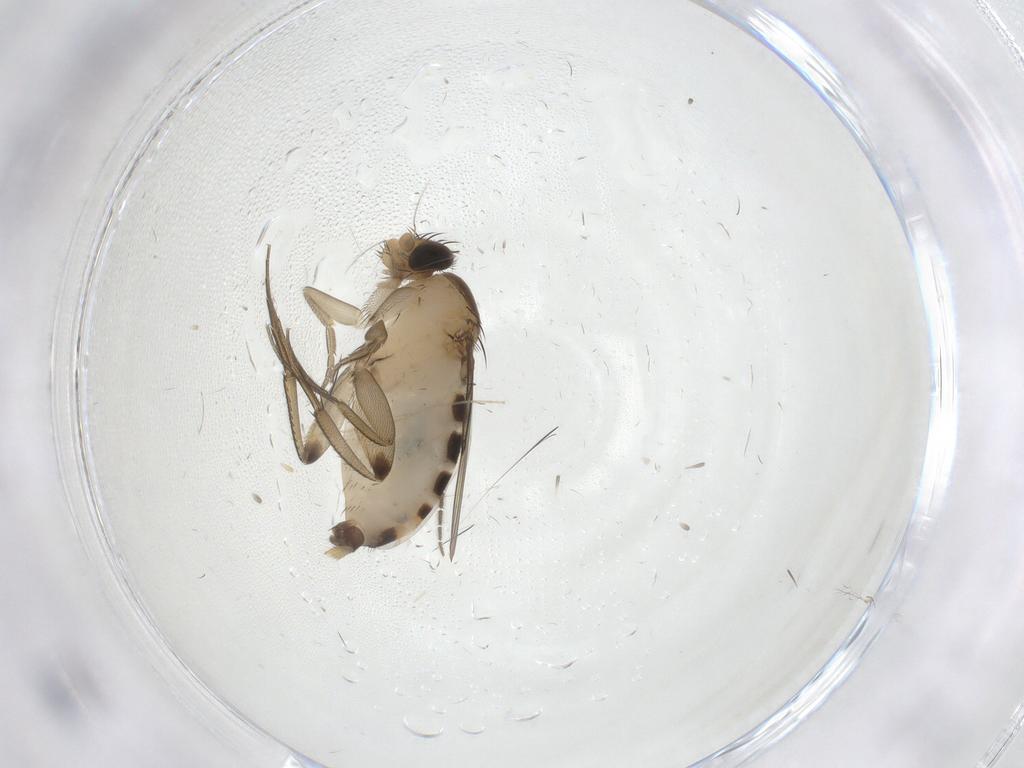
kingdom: Animalia
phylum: Arthropoda
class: Insecta
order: Diptera
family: Phoridae
